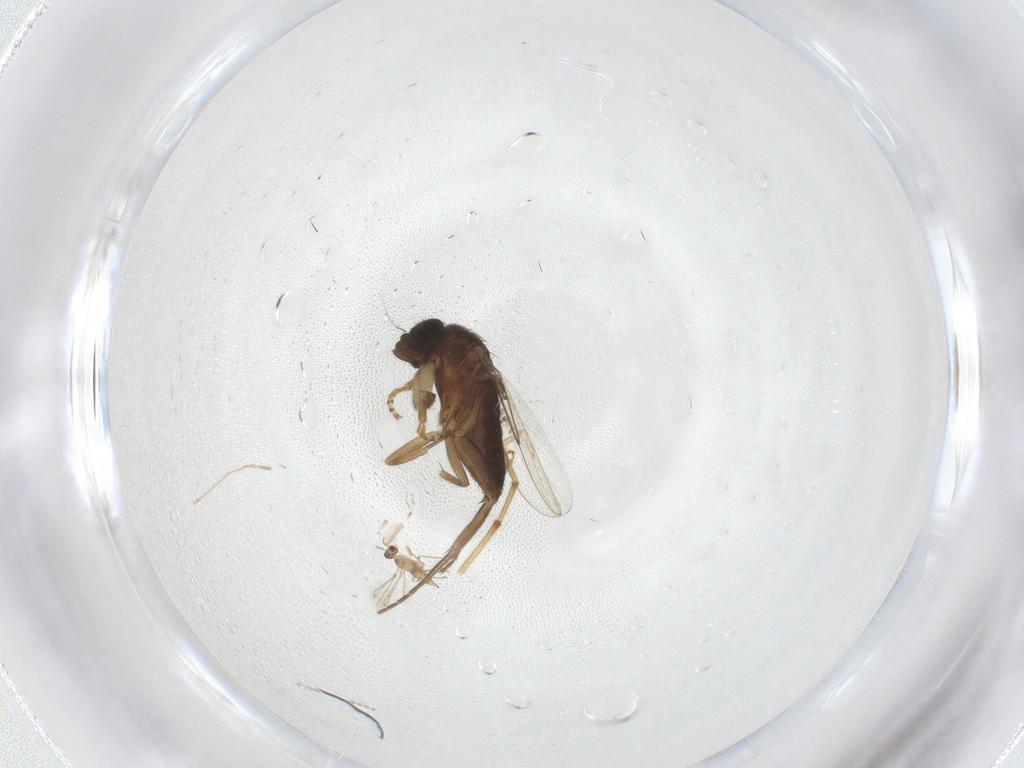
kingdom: Animalia
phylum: Arthropoda
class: Insecta
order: Diptera
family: Phoridae
